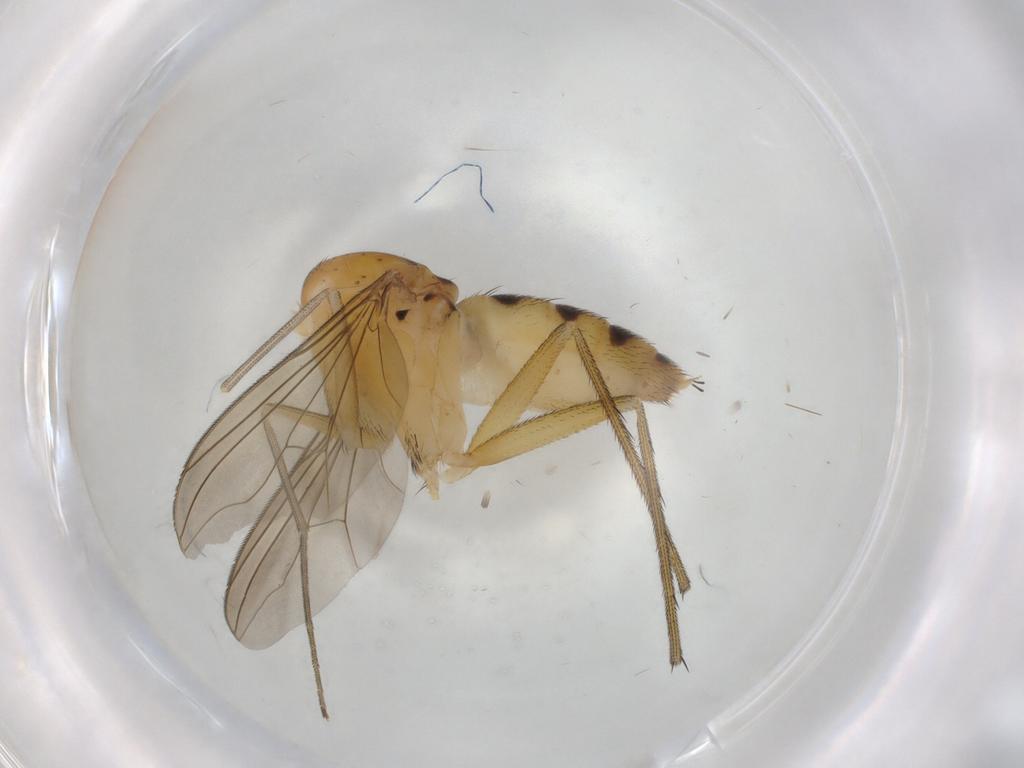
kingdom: Animalia
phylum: Arthropoda
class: Insecta
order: Diptera
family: Dolichopodidae
